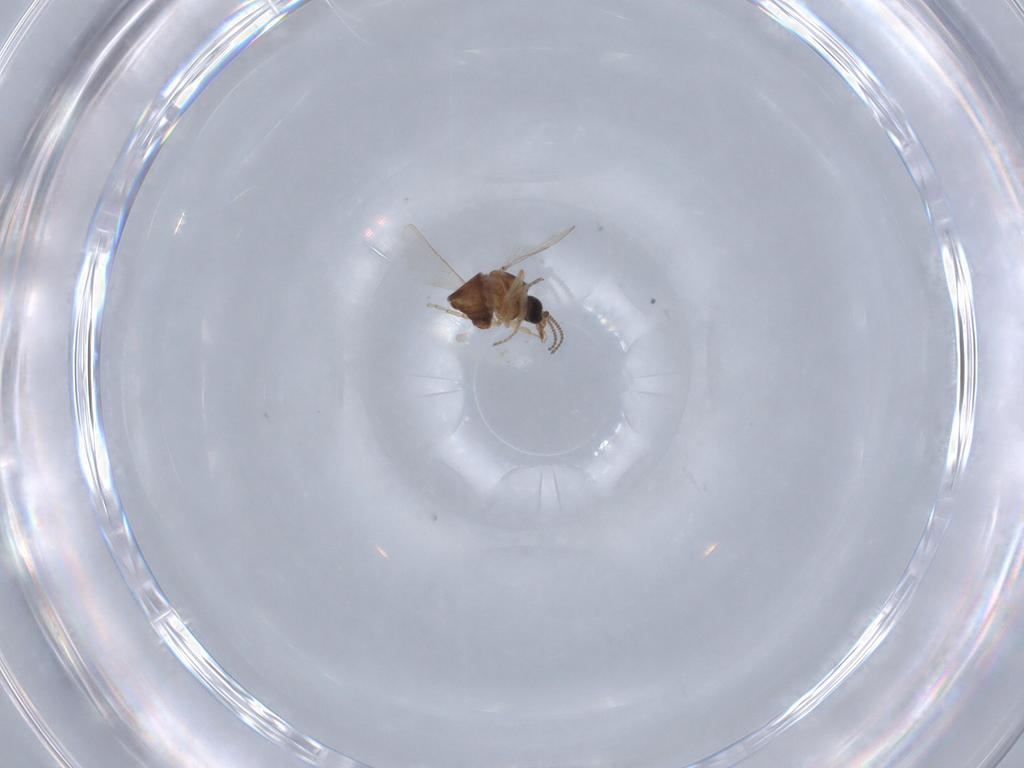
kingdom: Animalia
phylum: Arthropoda
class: Insecta
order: Diptera
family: Ceratopogonidae
